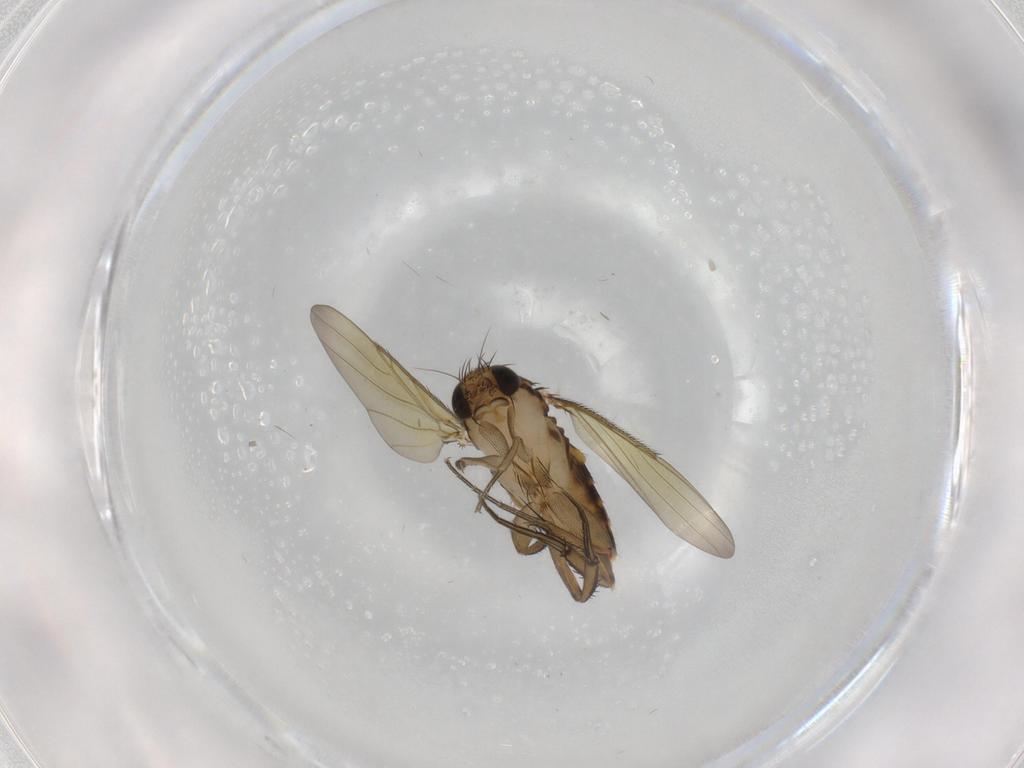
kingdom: Animalia
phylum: Arthropoda
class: Insecta
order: Diptera
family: Phoridae
